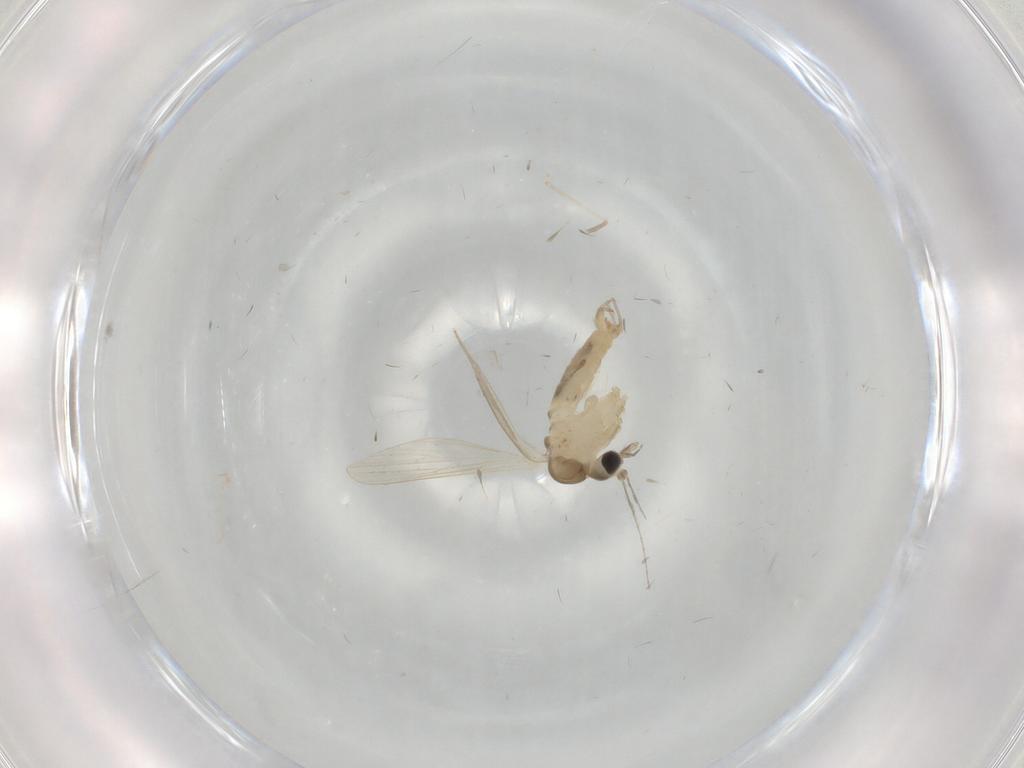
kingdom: Animalia
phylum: Arthropoda
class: Insecta
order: Diptera
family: Psychodidae
